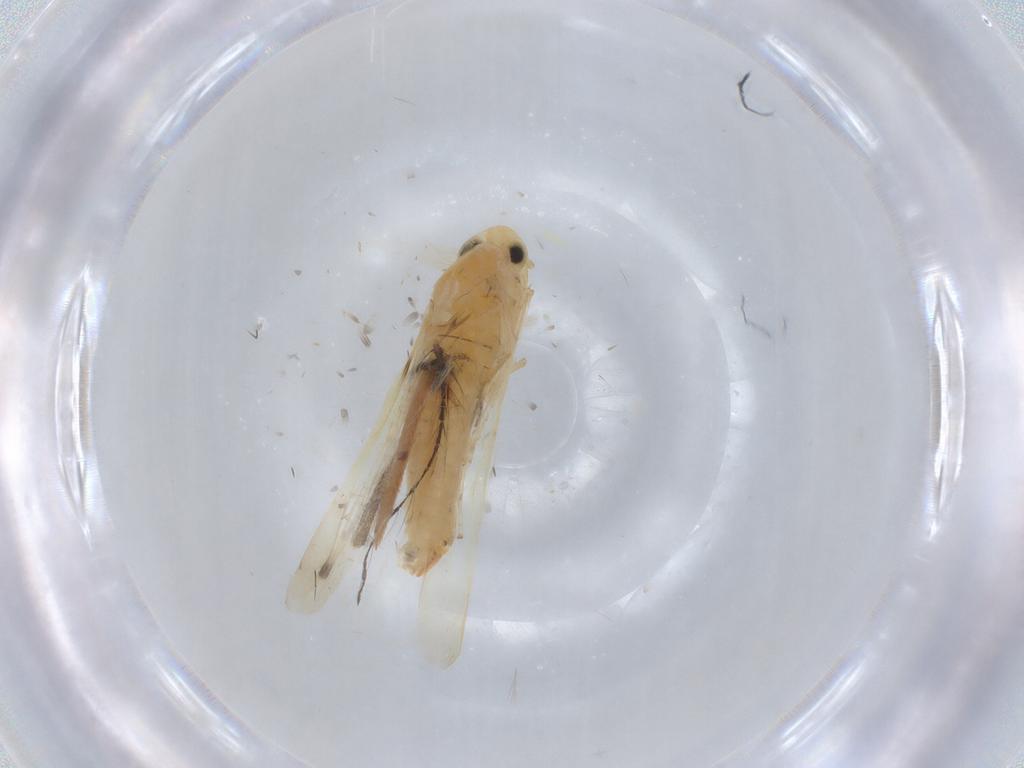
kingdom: Animalia
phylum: Arthropoda
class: Insecta
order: Hemiptera
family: Cicadellidae
